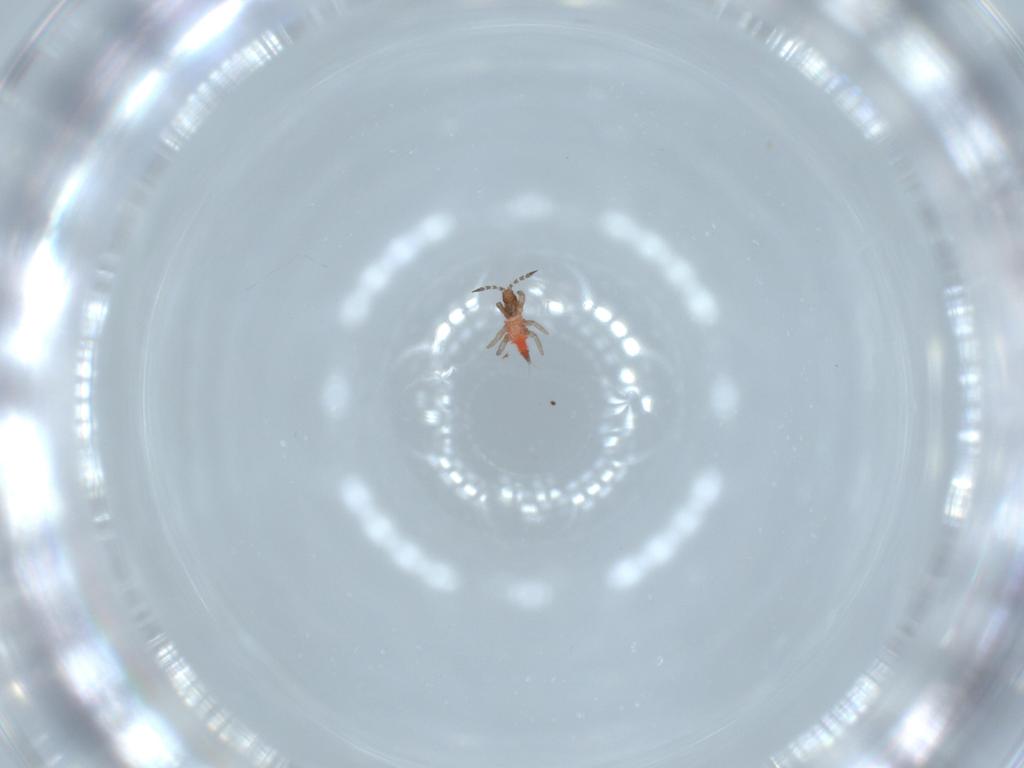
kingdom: Animalia
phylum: Arthropoda
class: Insecta
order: Thysanoptera
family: Phlaeothripidae
